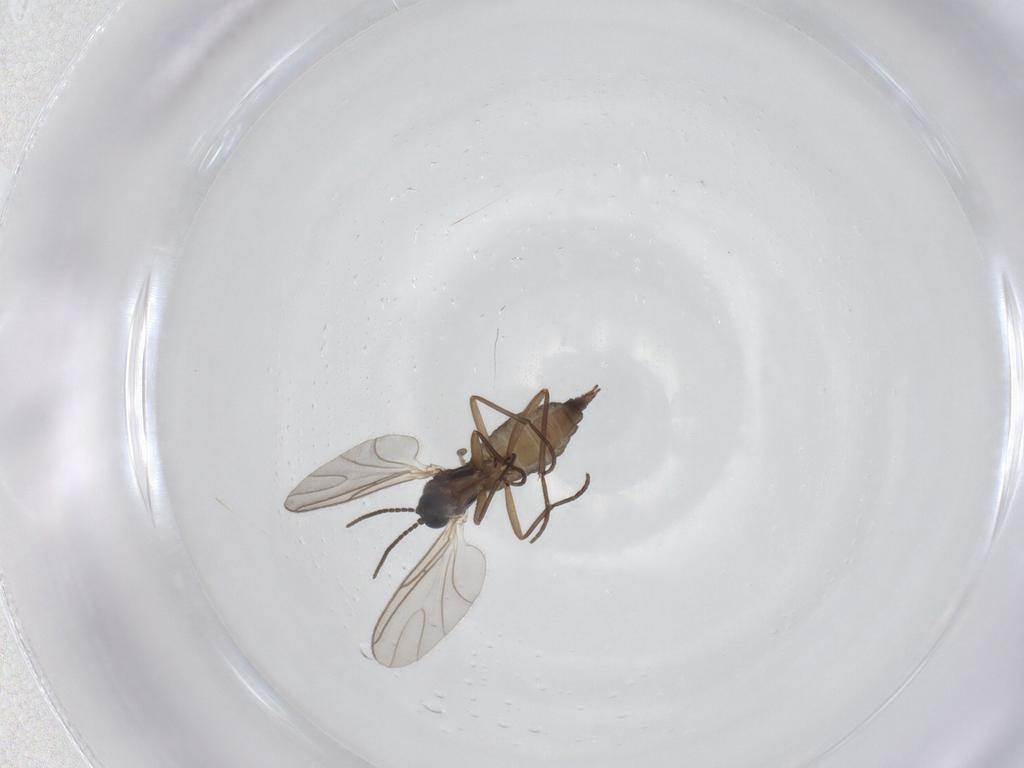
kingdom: Animalia
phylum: Arthropoda
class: Insecta
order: Diptera
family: Sciaridae
